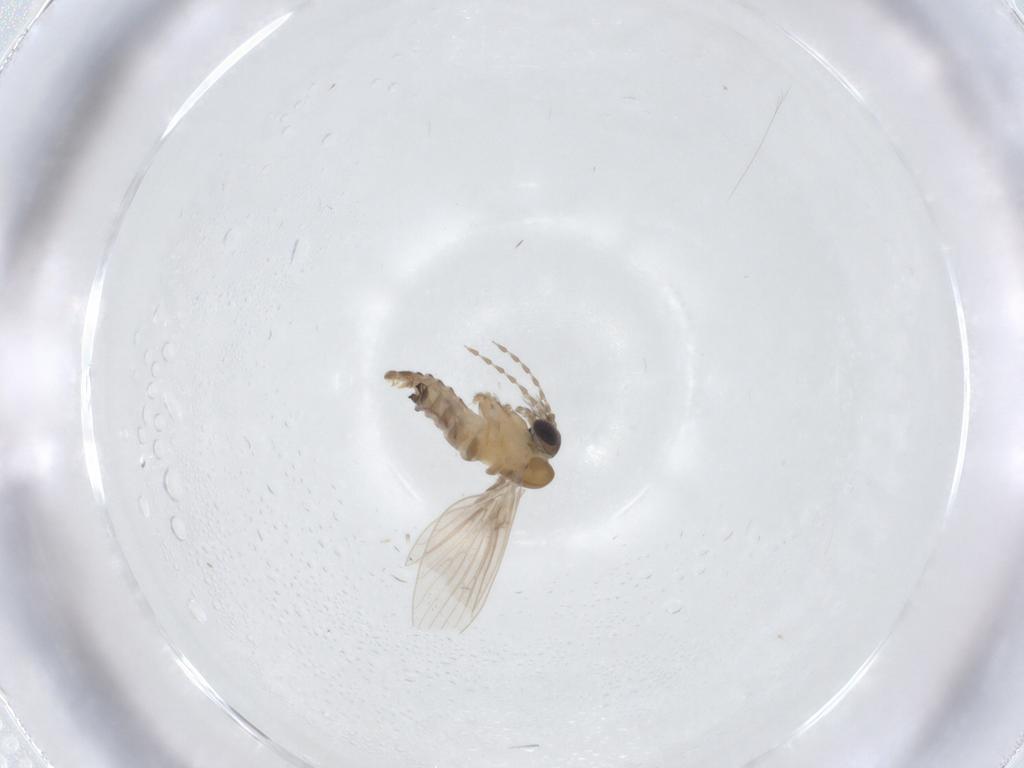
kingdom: Animalia
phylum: Arthropoda
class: Insecta
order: Diptera
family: Psychodidae
